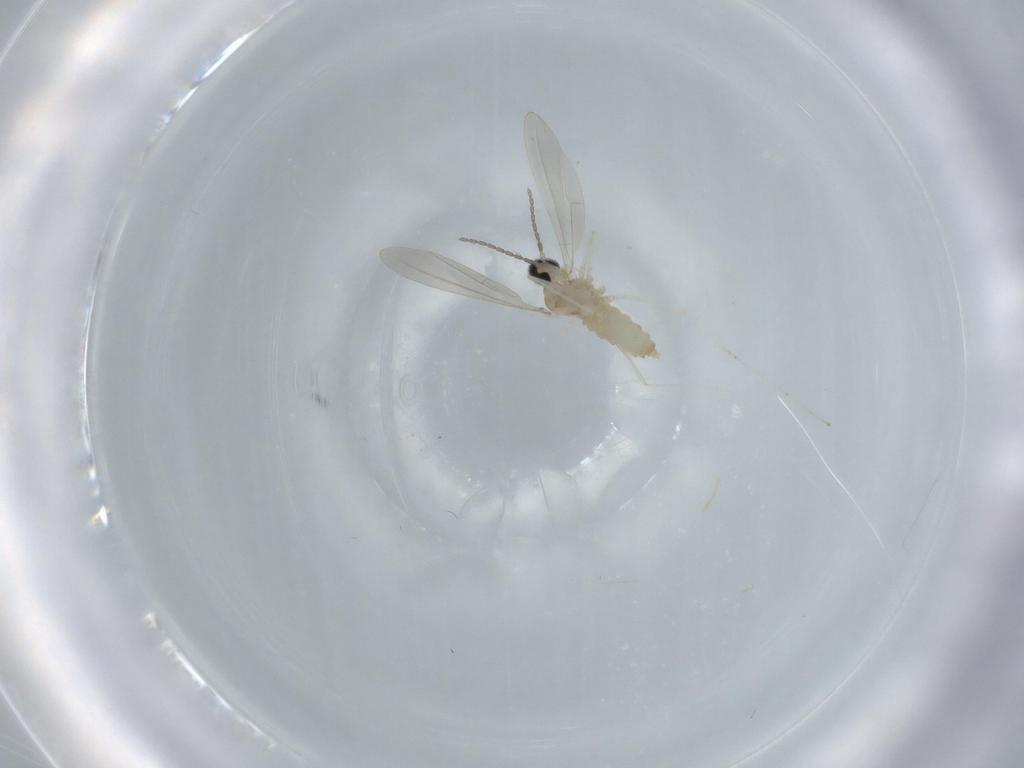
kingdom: Animalia
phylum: Arthropoda
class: Insecta
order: Diptera
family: Cecidomyiidae
